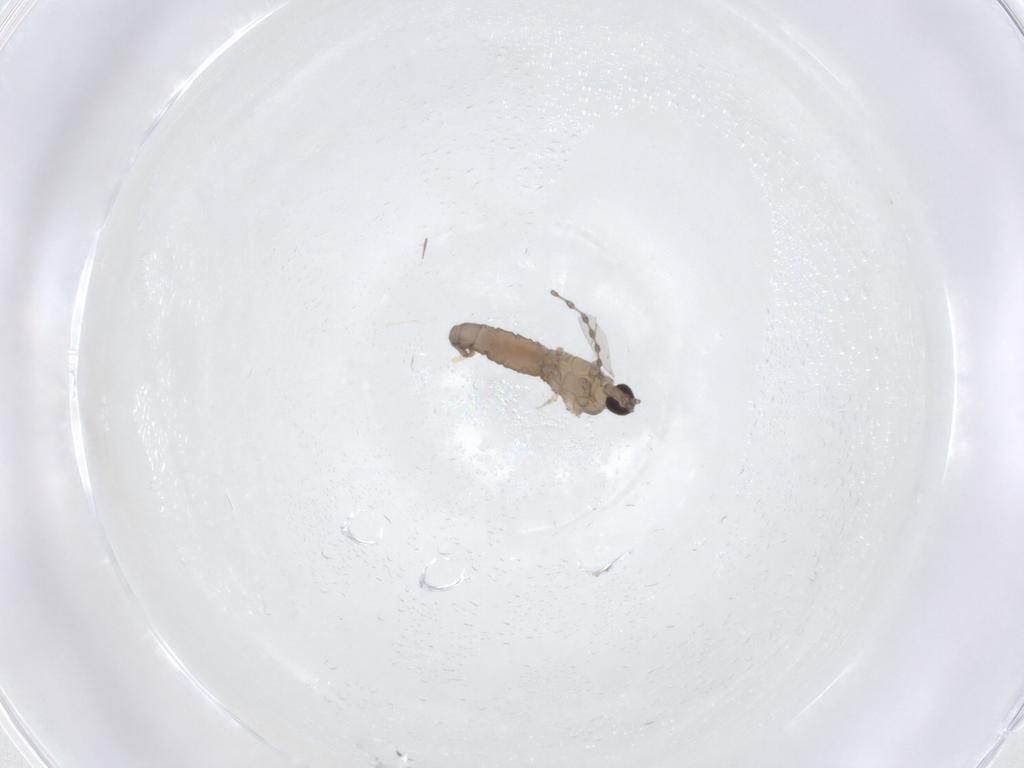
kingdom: Animalia
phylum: Arthropoda
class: Insecta
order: Diptera
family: Cecidomyiidae
